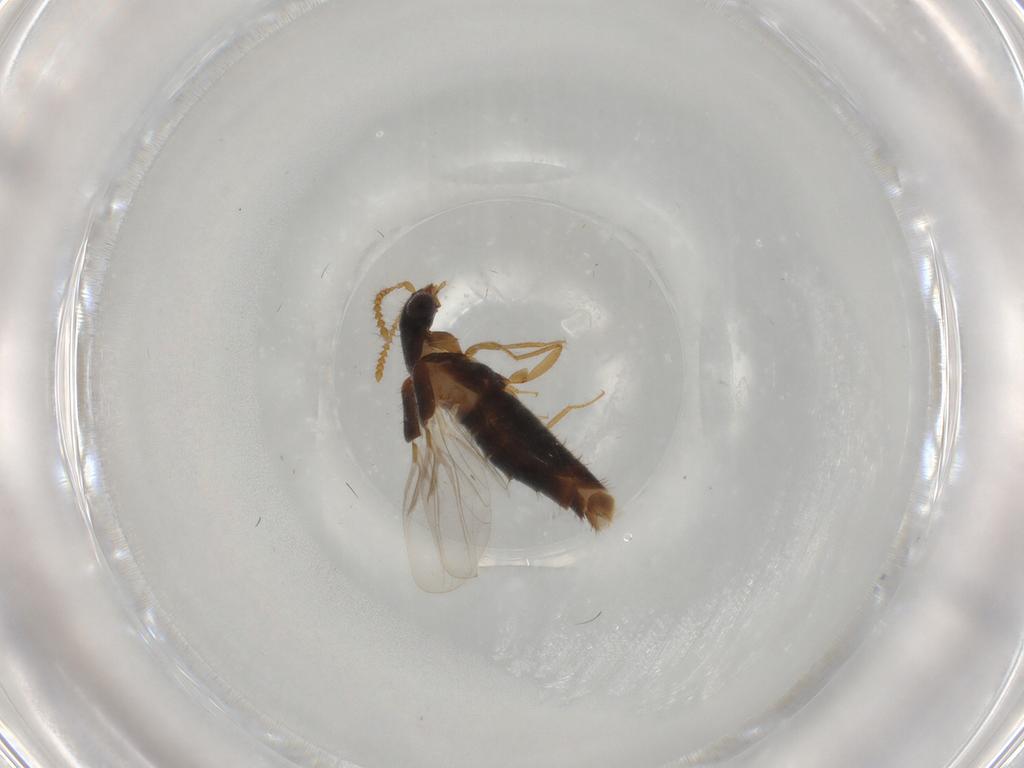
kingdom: Animalia
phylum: Arthropoda
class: Insecta
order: Coleoptera
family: Staphylinidae
